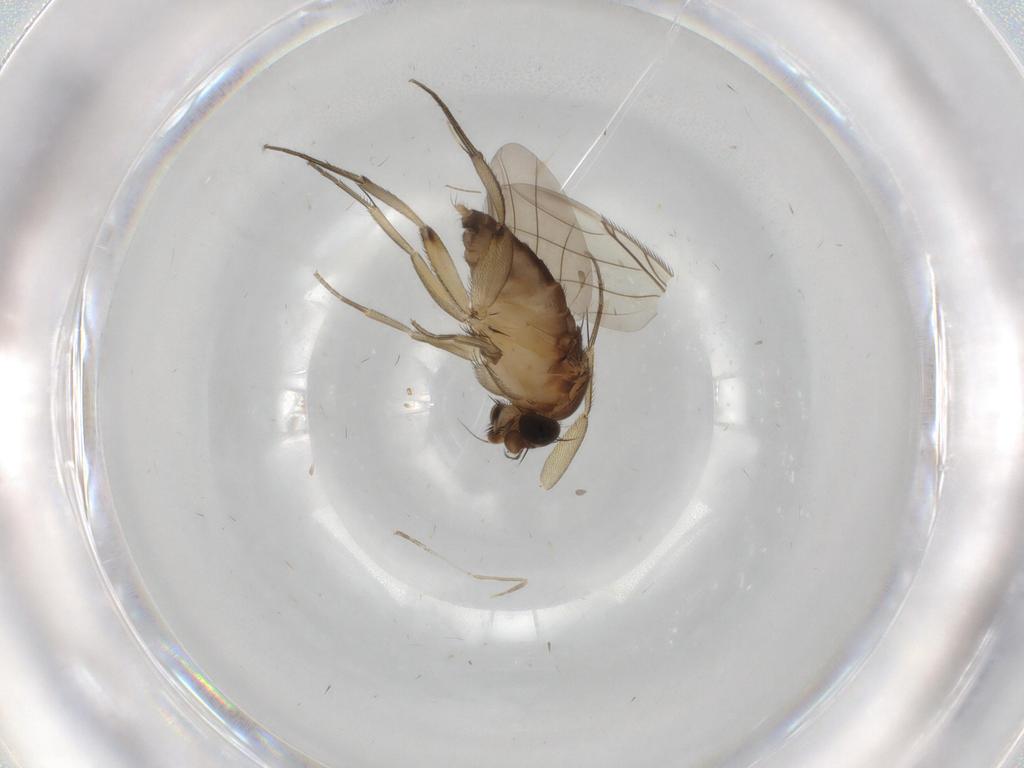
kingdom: Animalia
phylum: Arthropoda
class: Insecta
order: Diptera
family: Phoridae
